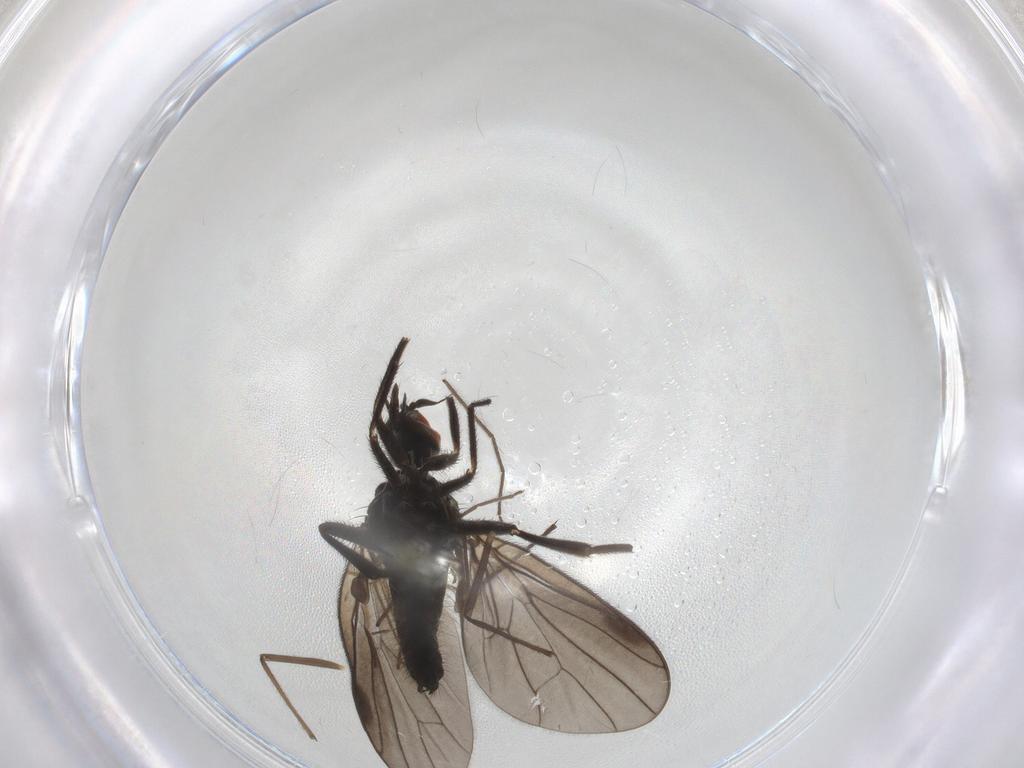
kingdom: Animalia
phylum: Arthropoda
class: Insecta
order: Diptera
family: Hybotidae
